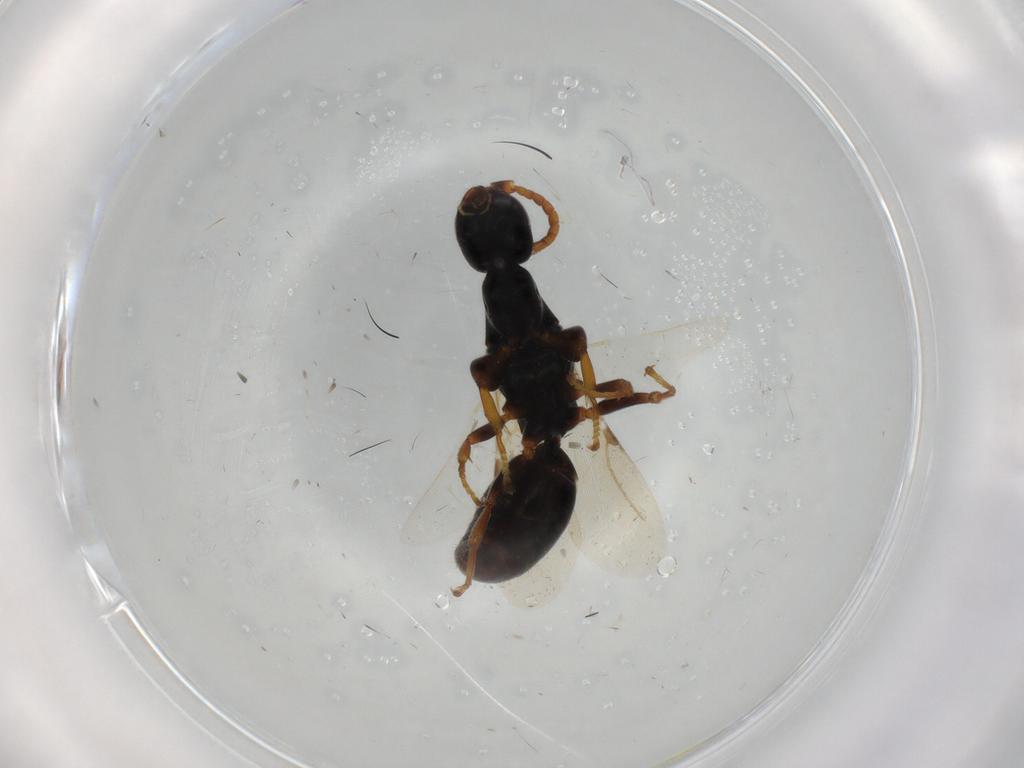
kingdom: Animalia
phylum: Arthropoda
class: Insecta
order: Hymenoptera
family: Bethylidae
